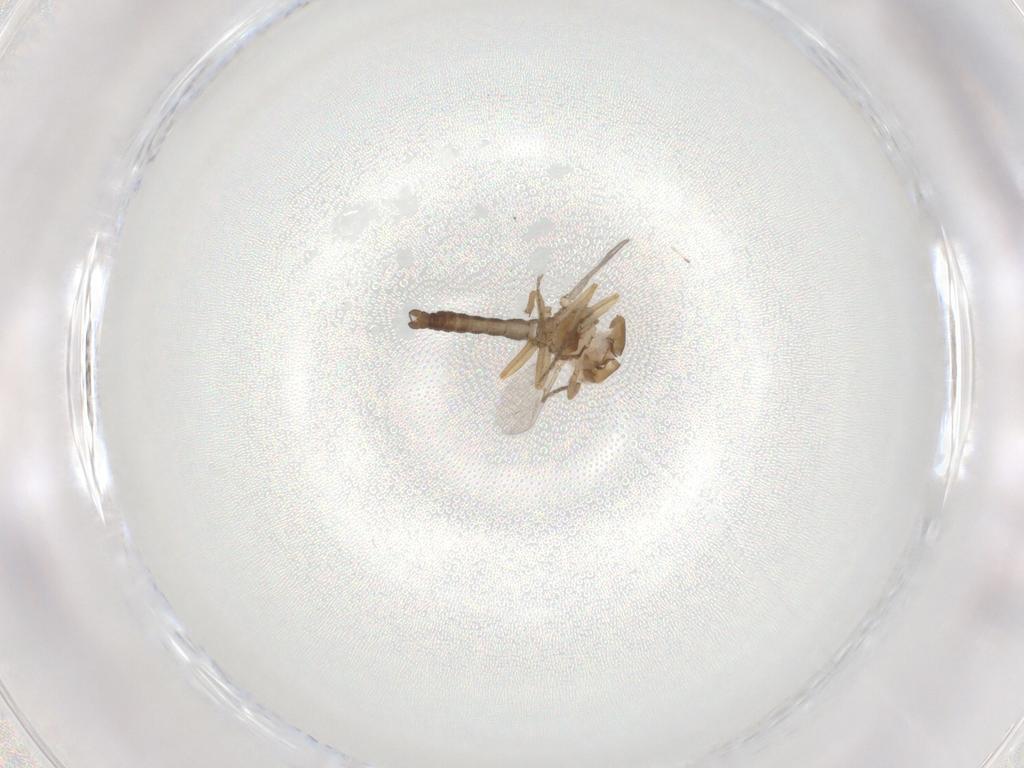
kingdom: Animalia
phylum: Arthropoda
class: Insecta
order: Diptera
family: Ceratopogonidae
